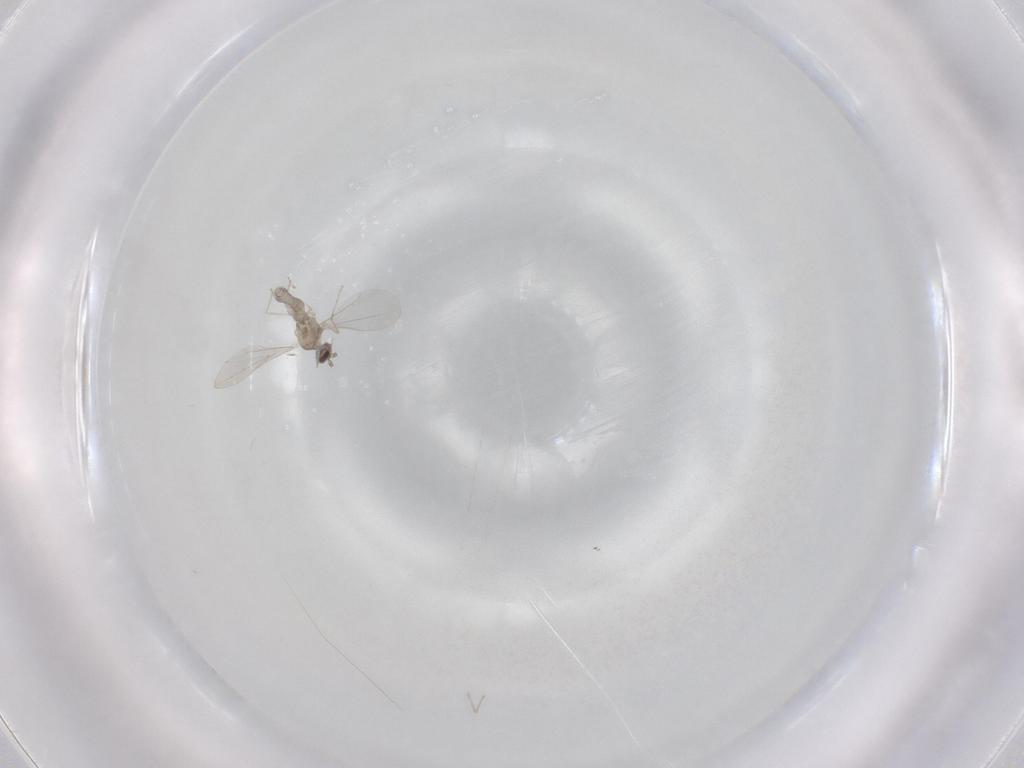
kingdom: Animalia
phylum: Arthropoda
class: Insecta
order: Diptera
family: Cecidomyiidae
